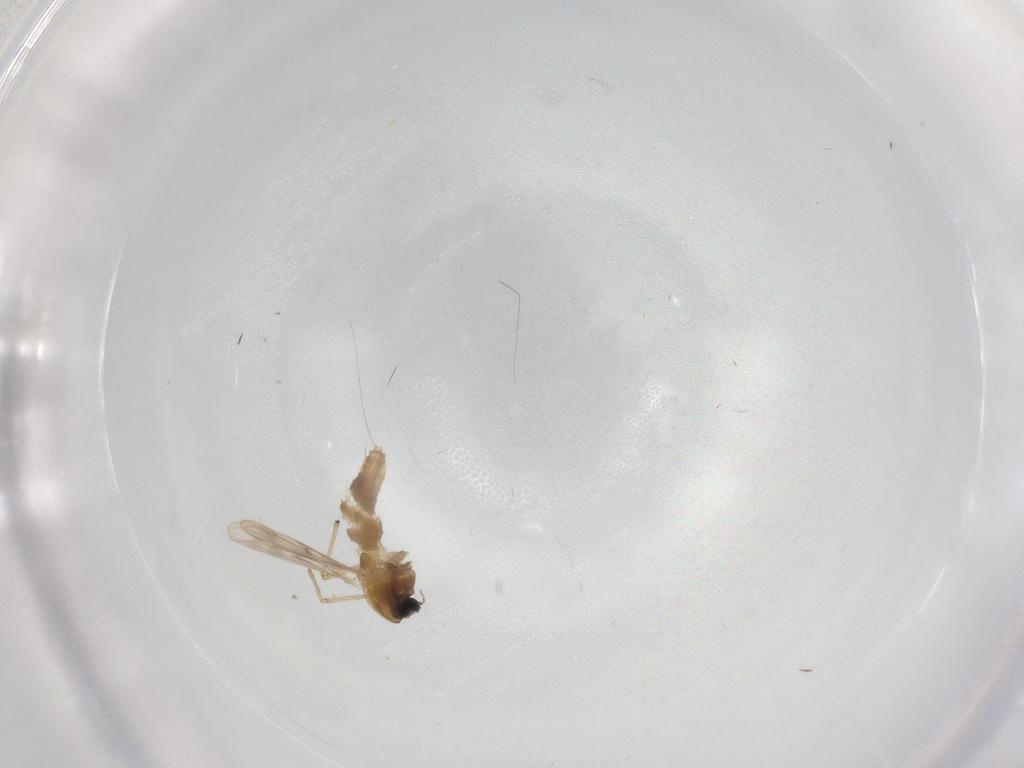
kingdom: Animalia
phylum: Arthropoda
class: Insecta
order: Diptera
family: Chironomidae
